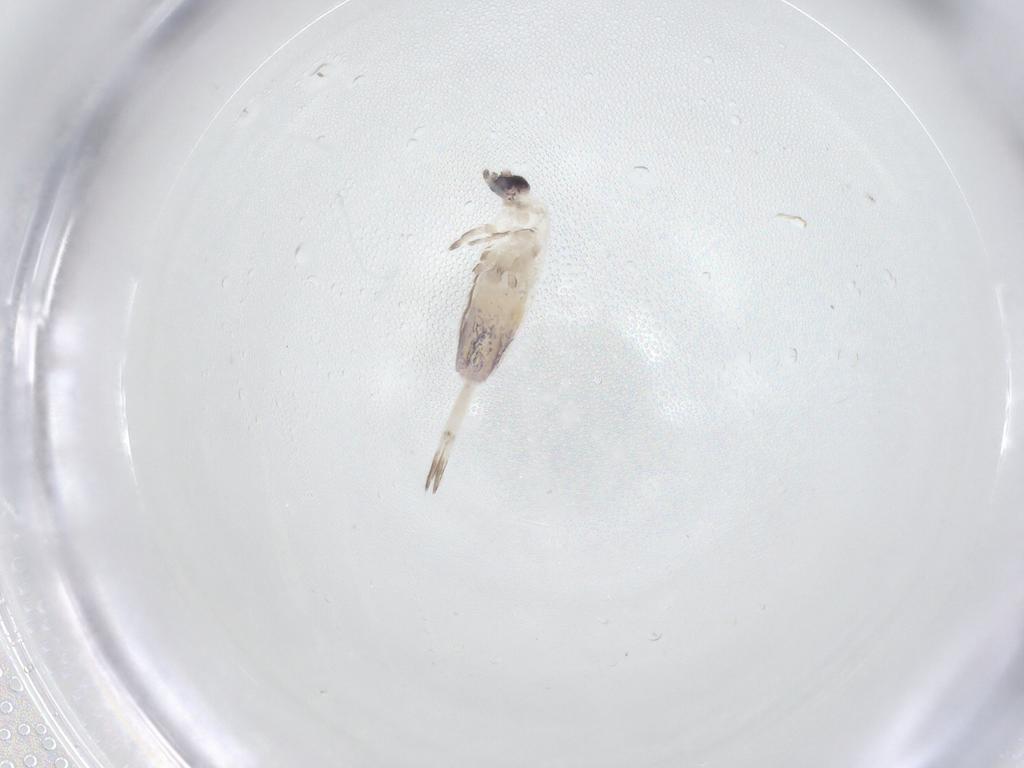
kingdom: Animalia
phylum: Arthropoda
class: Collembola
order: Entomobryomorpha
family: Entomobryidae
